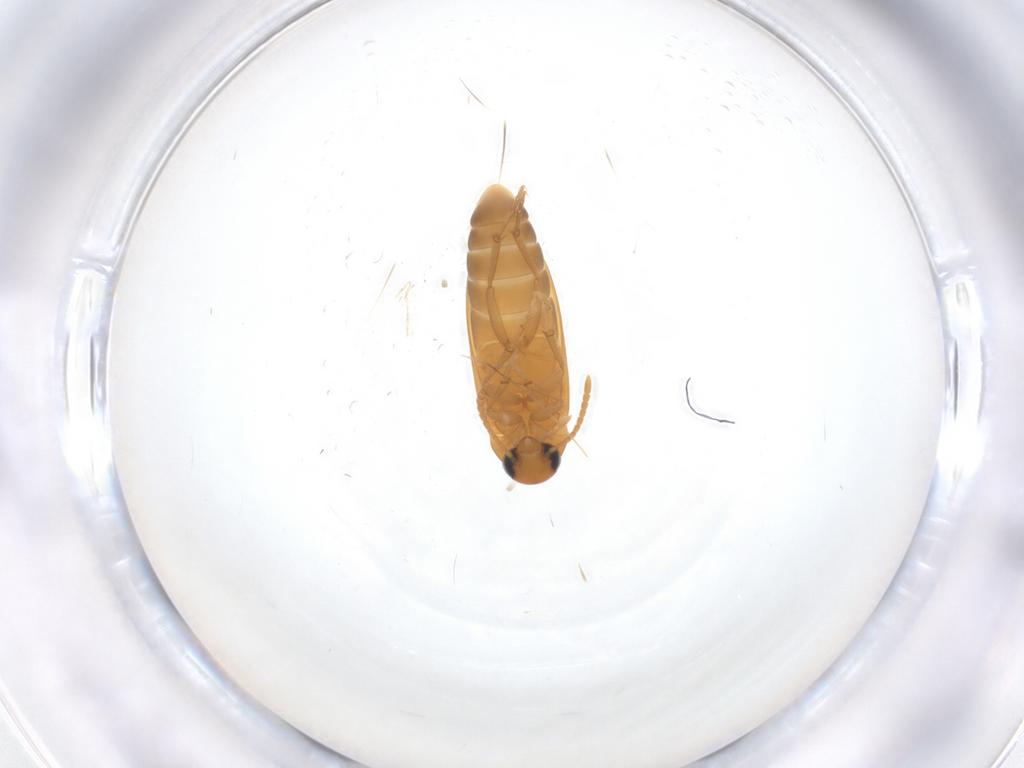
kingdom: Animalia
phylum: Arthropoda
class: Insecta
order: Coleoptera
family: Scraptiidae
